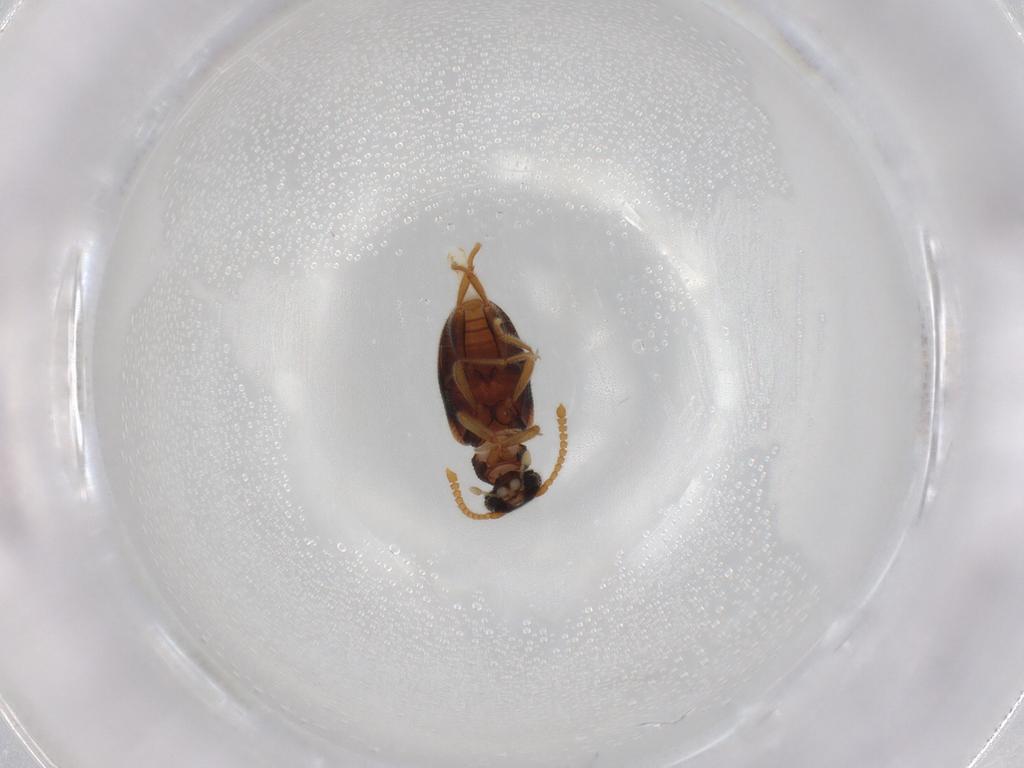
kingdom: Animalia
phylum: Arthropoda
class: Insecta
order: Coleoptera
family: Aderidae
